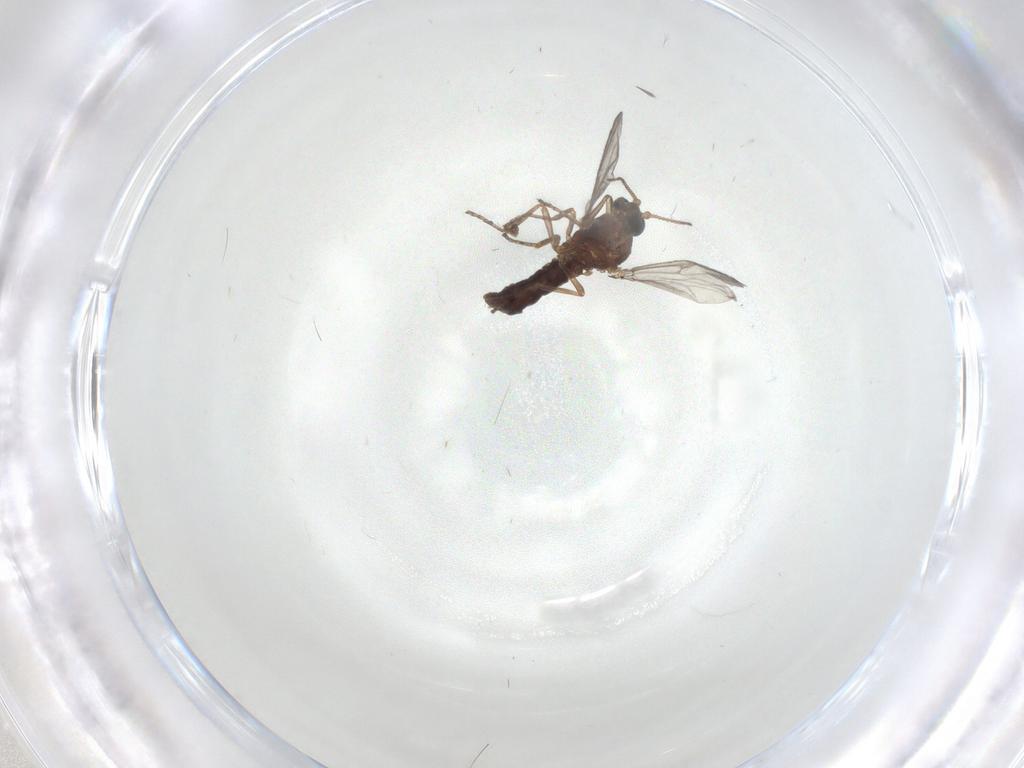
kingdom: Animalia
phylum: Arthropoda
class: Insecta
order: Diptera
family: Ceratopogonidae
